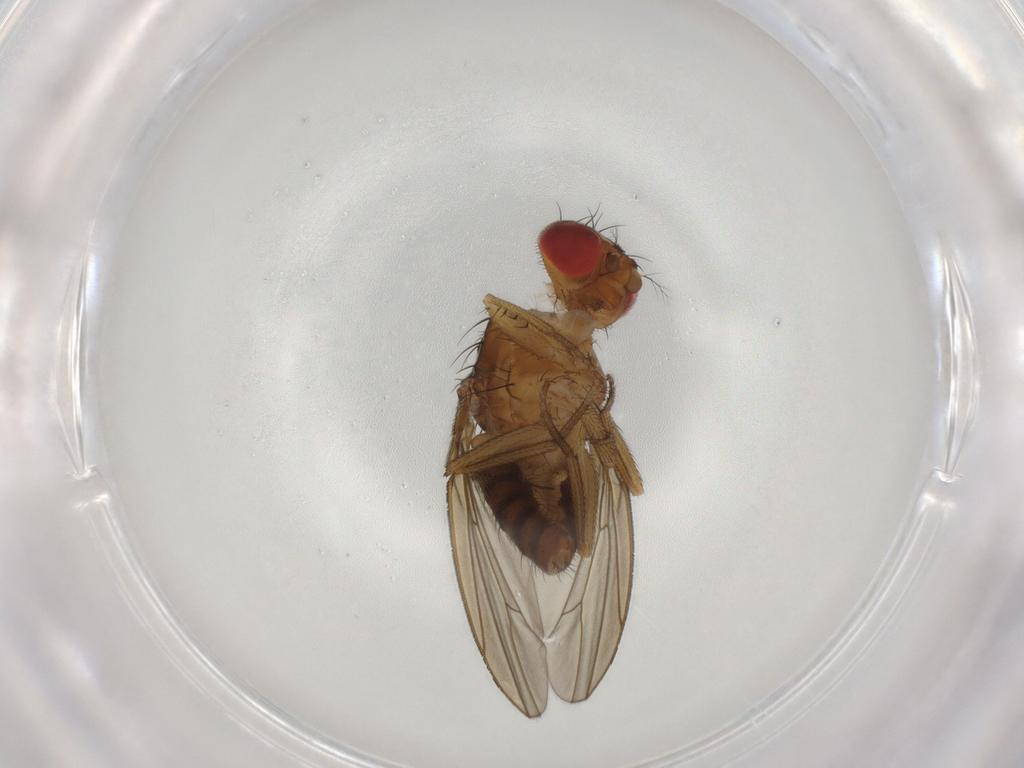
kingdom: Animalia
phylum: Arthropoda
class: Insecta
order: Diptera
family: Drosophilidae
